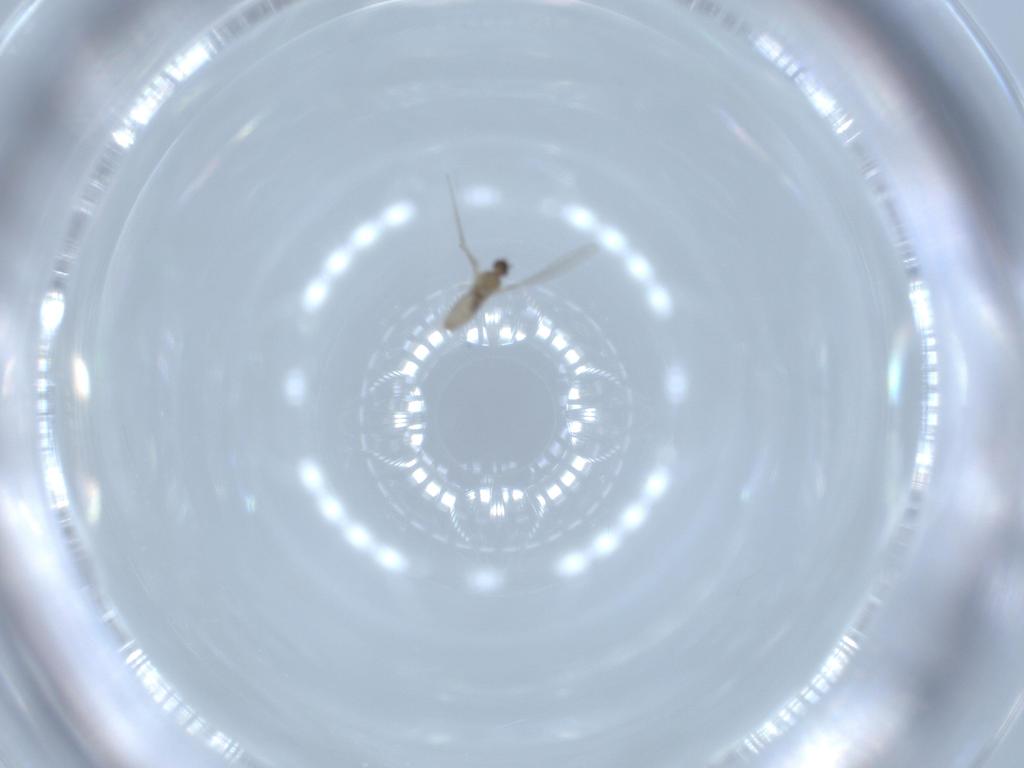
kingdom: Animalia
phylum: Arthropoda
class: Insecta
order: Diptera
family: Cecidomyiidae
